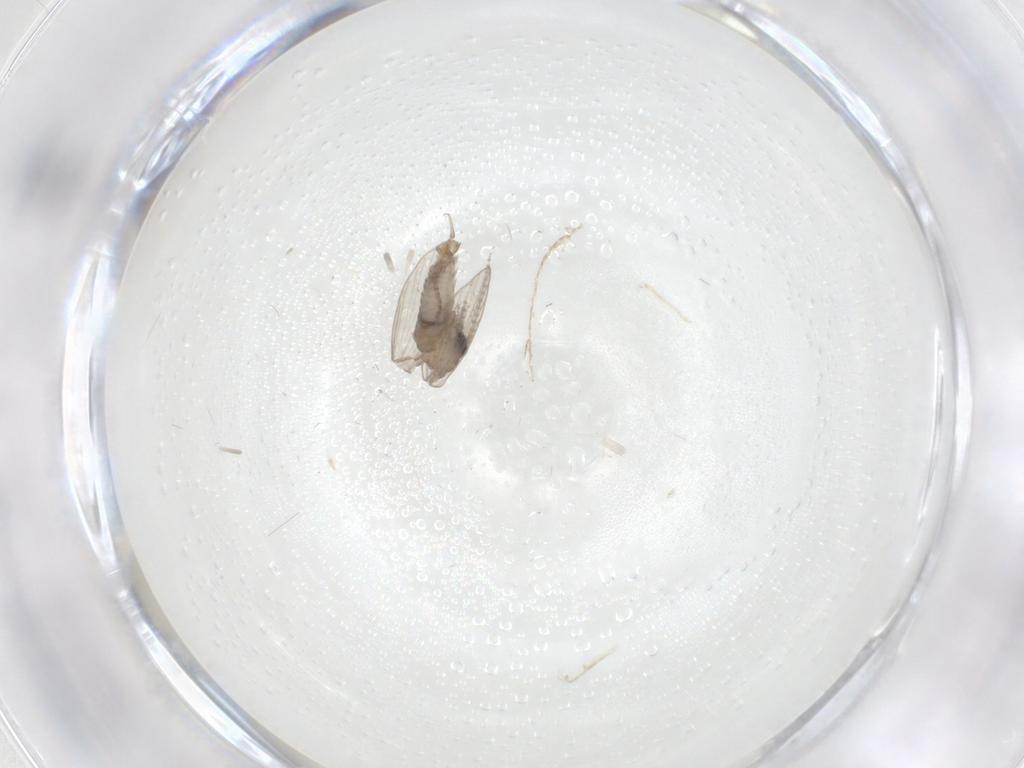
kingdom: Animalia
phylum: Arthropoda
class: Insecta
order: Diptera
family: Psychodidae
